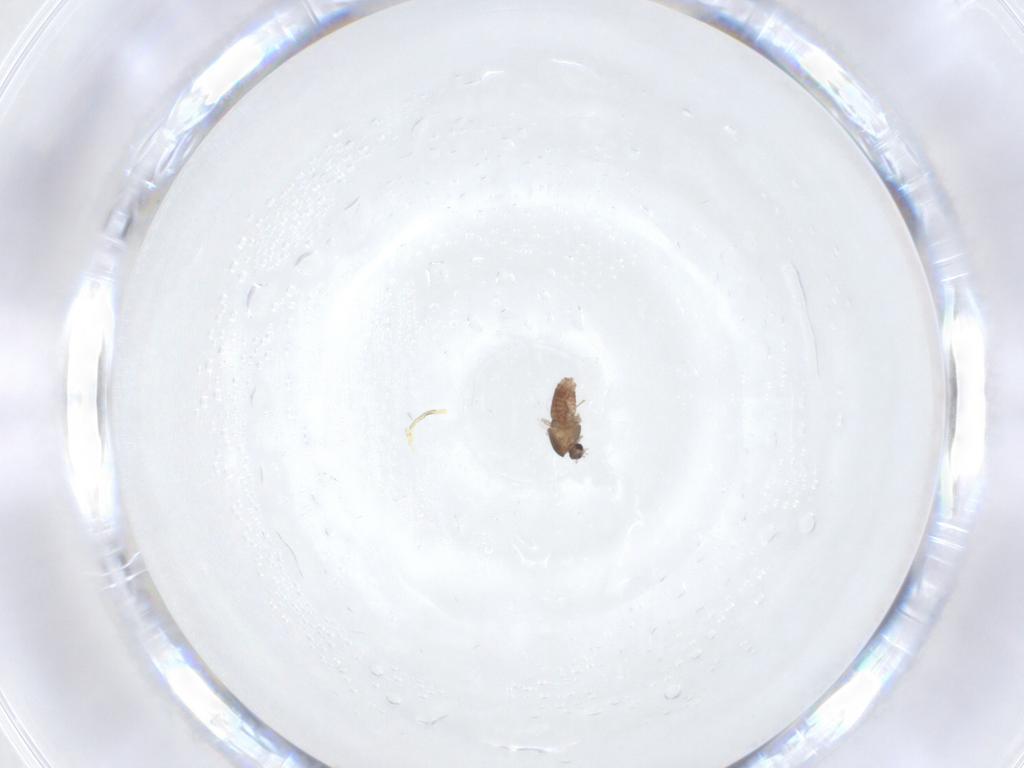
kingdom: Animalia
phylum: Arthropoda
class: Insecta
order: Diptera
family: Chironomidae
